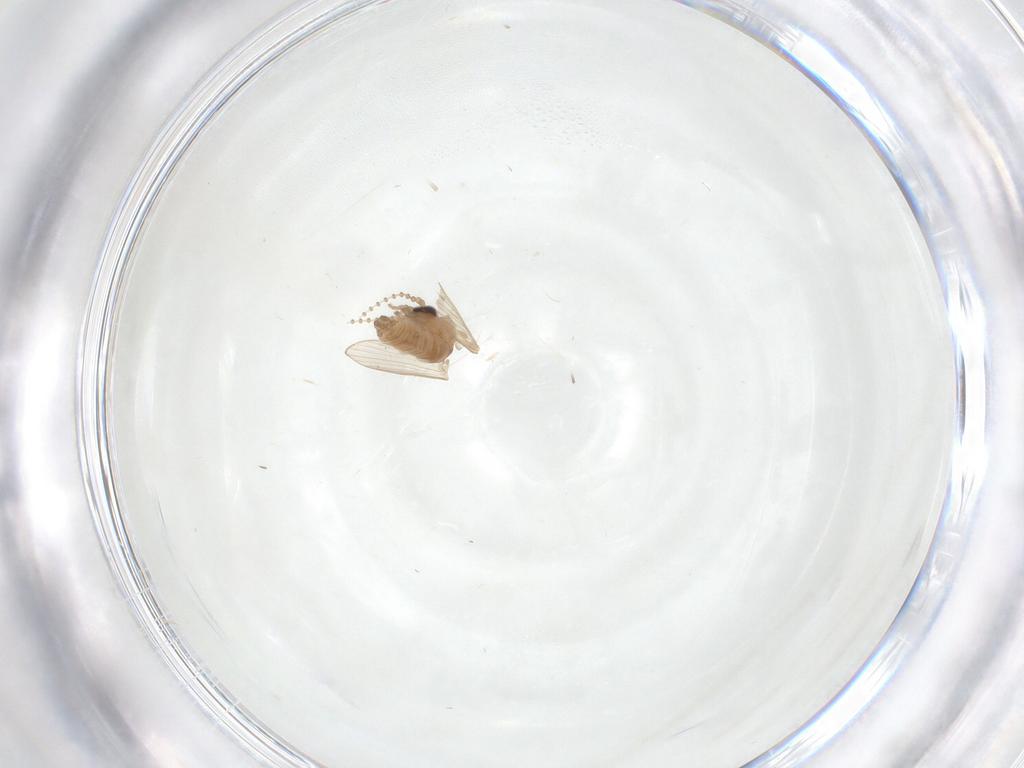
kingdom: Animalia
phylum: Arthropoda
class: Insecta
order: Diptera
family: Cecidomyiidae
